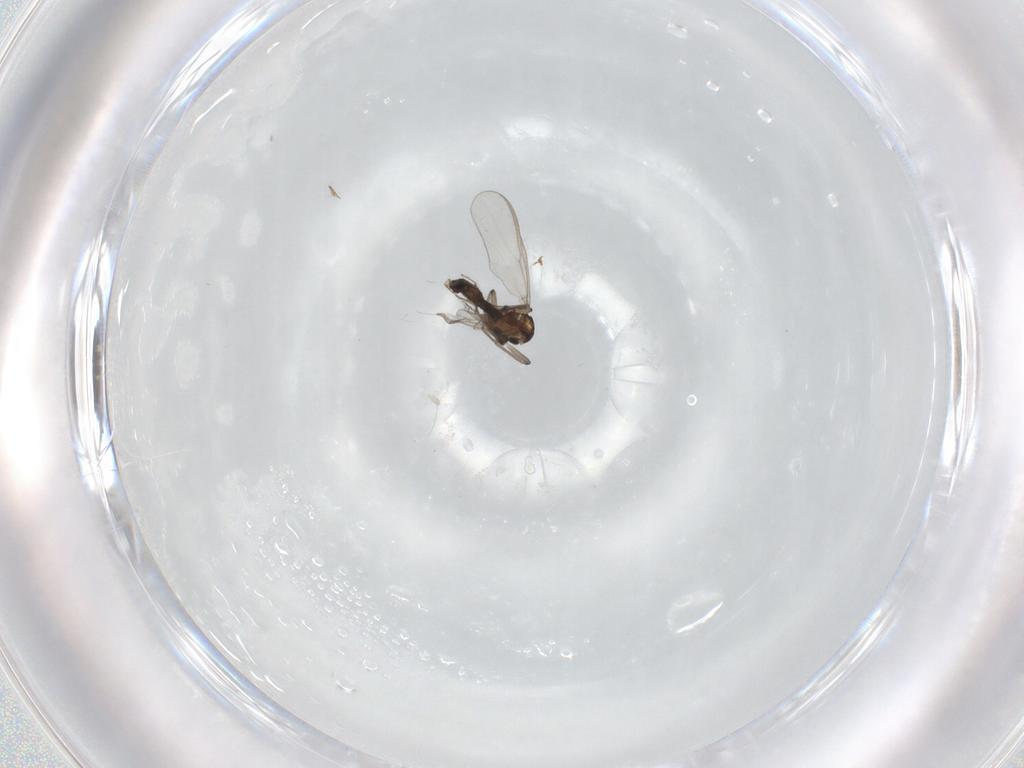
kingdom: Animalia
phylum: Arthropoda
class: Insecta
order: Diptera
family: Chironomidae
